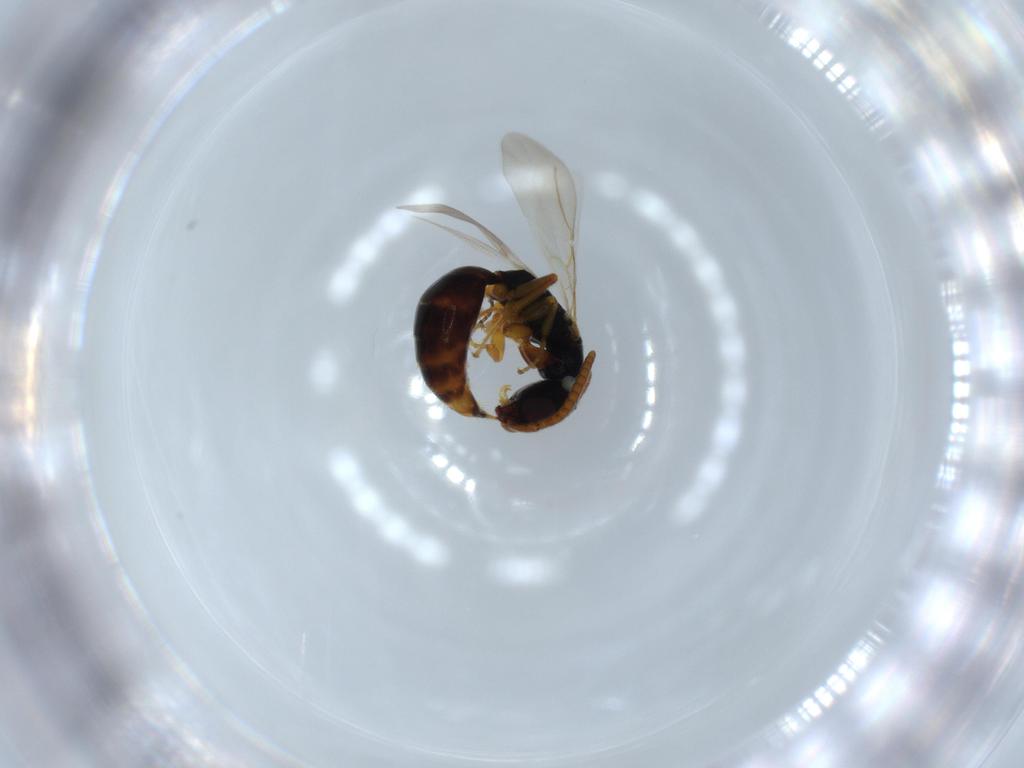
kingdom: Animalia
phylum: Arthropoda
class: Insecta
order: Hymenoptera
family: Bethylidae
